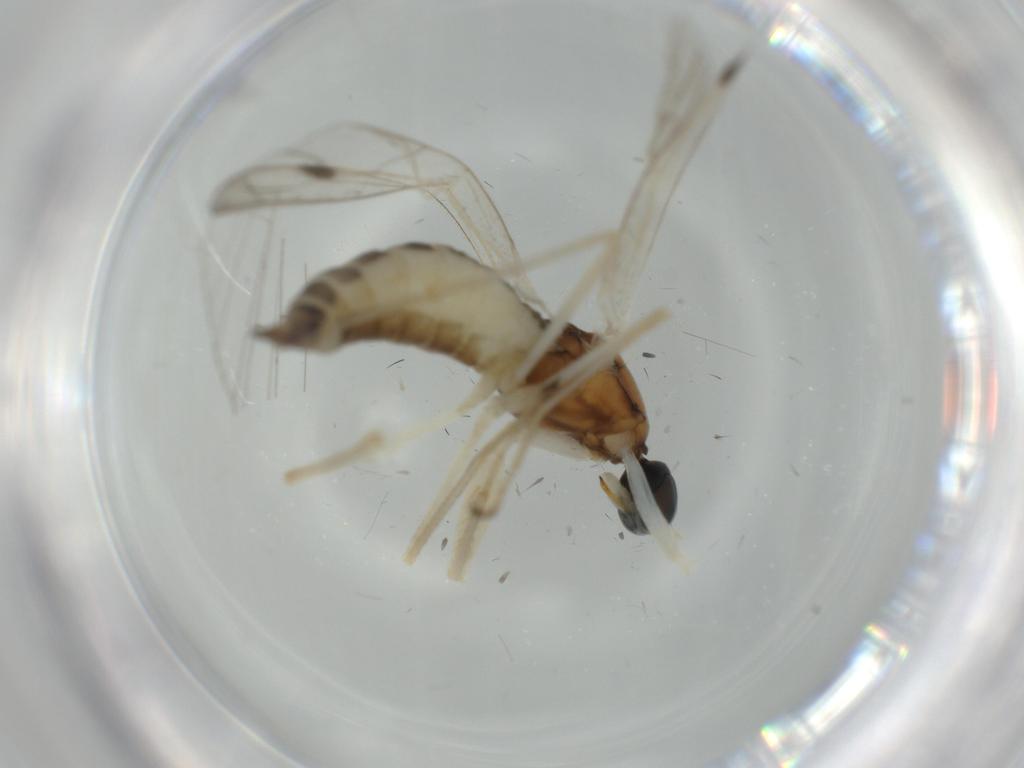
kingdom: Animalia
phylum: Arthropoda
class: Insecta
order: Diptera
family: Empididae
